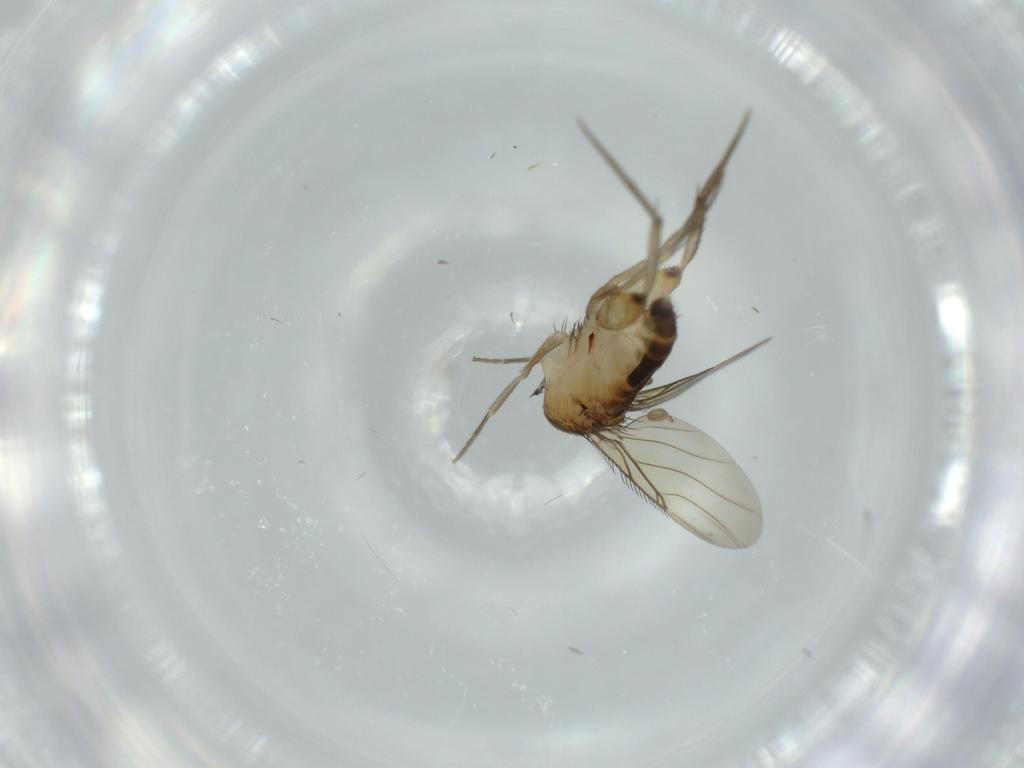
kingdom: Animalia
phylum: Arthropoda
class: Insecta
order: Diptera
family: Phoridae
